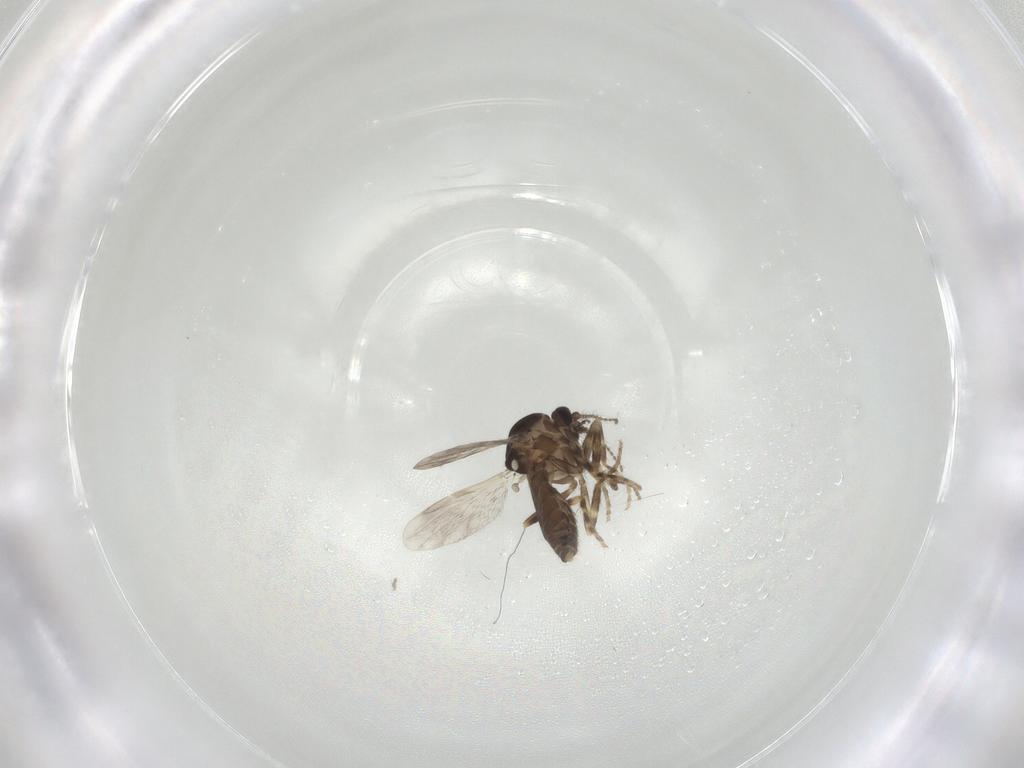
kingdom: Animalia
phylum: Arthropoda
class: Insecta
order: Diptera
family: Ceratopogonidae
